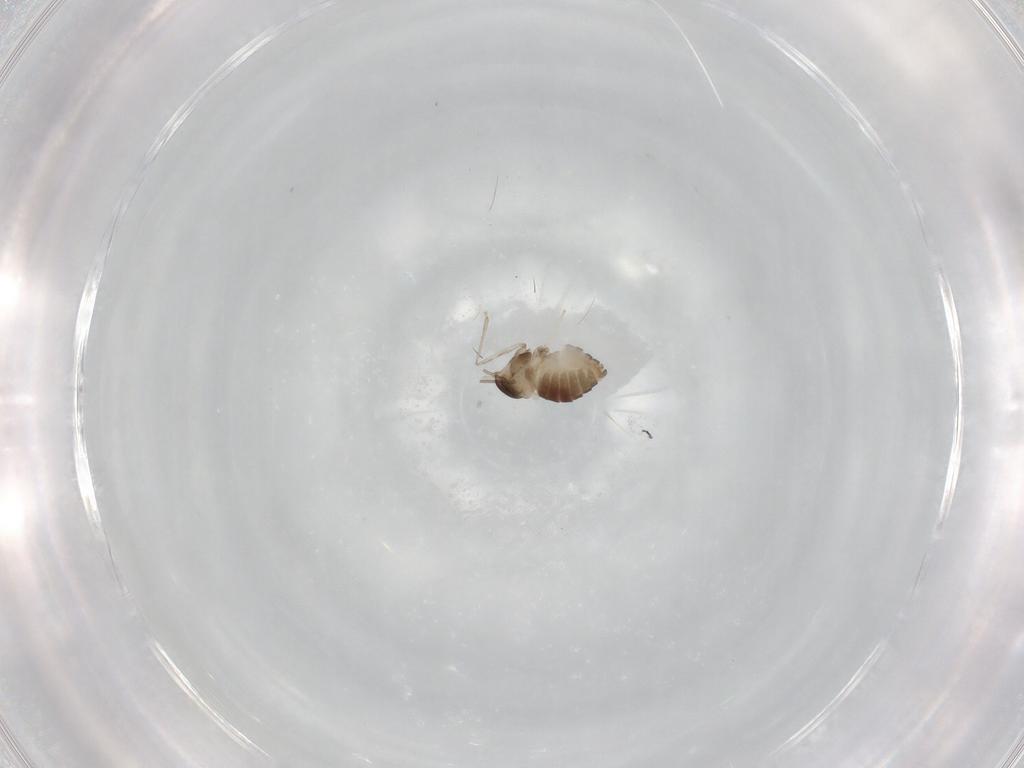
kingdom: Animalia
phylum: Arthropoda
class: Insecta
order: Diptera
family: Cecidomyiidae
